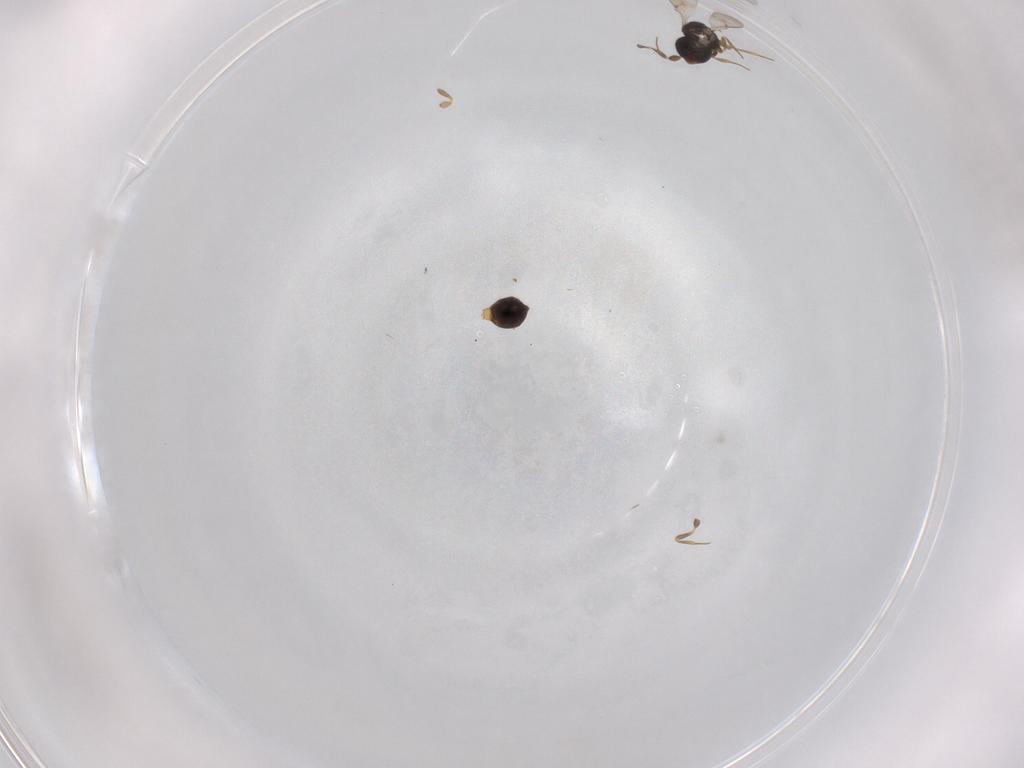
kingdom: Animalia
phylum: Arthropoda
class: Insecta
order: Hymenoptera
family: Scelionidae
